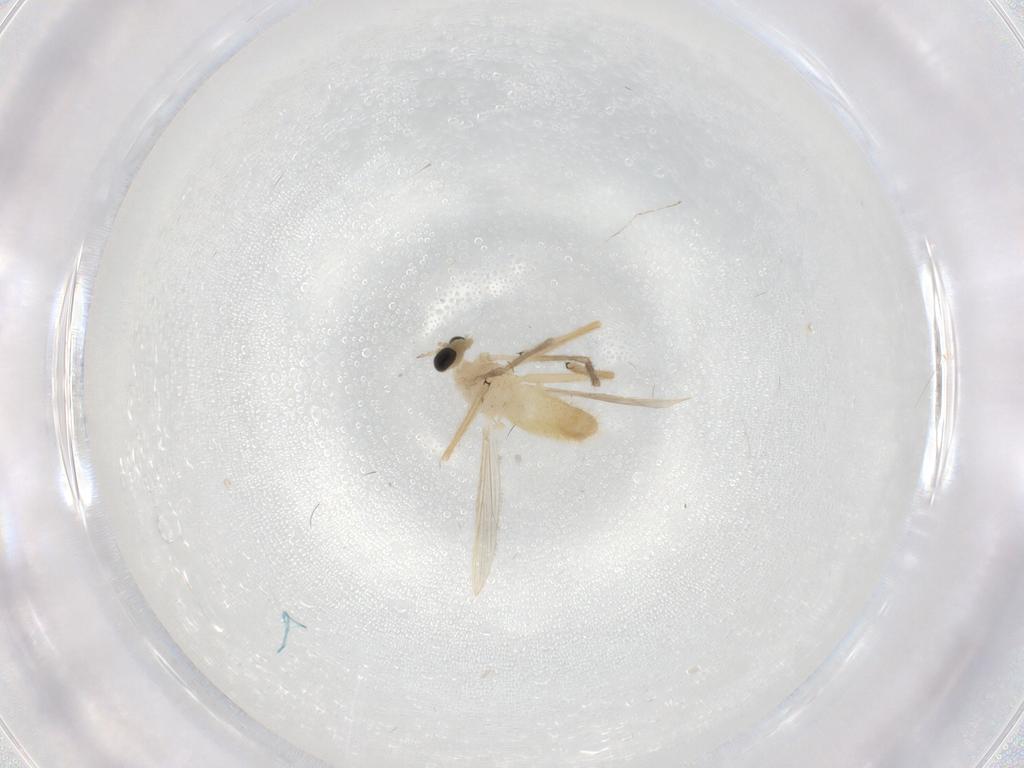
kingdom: Animalia
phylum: Arthropoda
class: Insecta
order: Diptera
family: Cecidomyiidae
